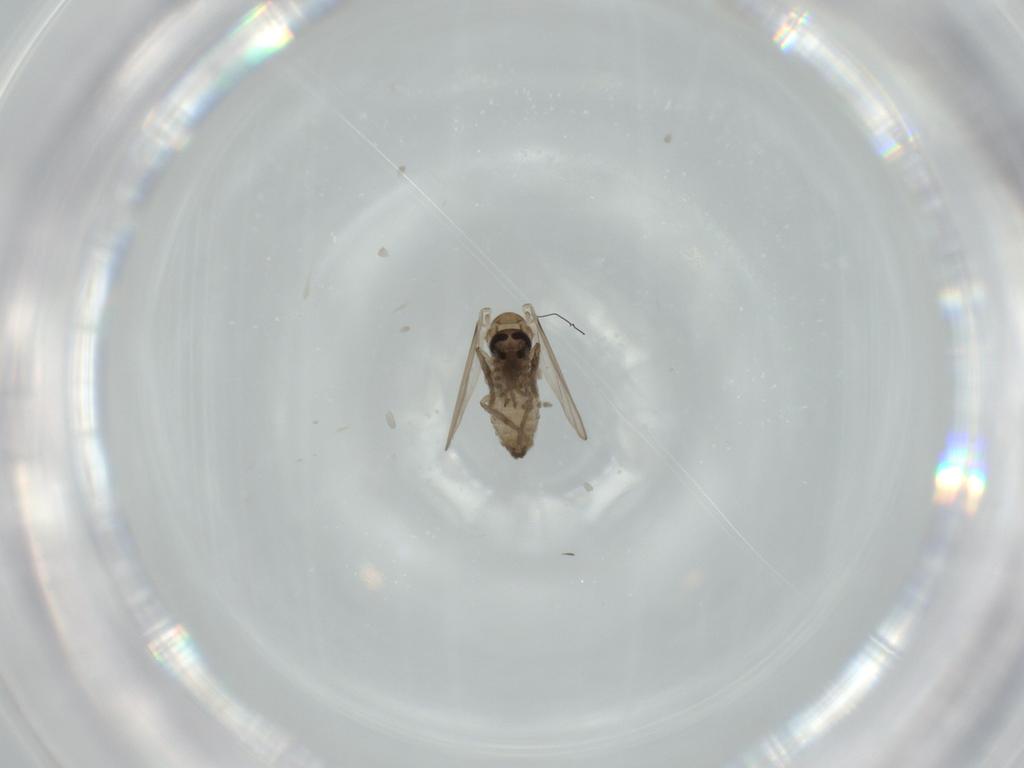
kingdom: Animalia
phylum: Arthropoda
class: Insecta
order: Diptera
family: Psychodidae
